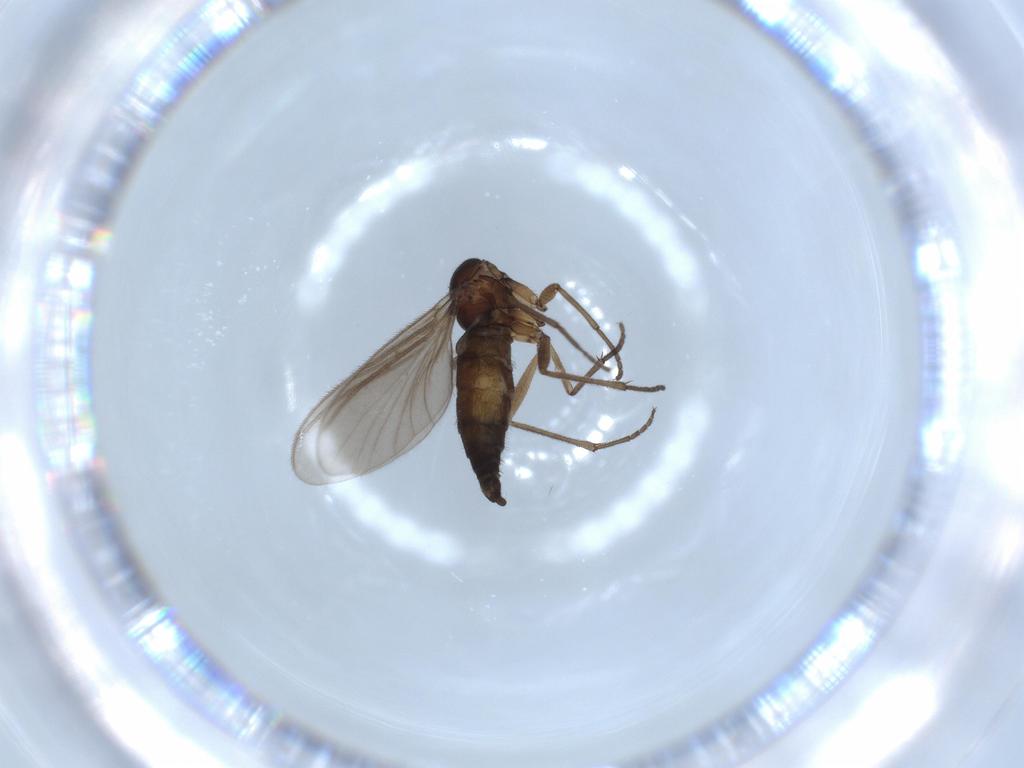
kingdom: Animalia
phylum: Arthropoda
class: Insecta
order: Diptera
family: Sciaridae
